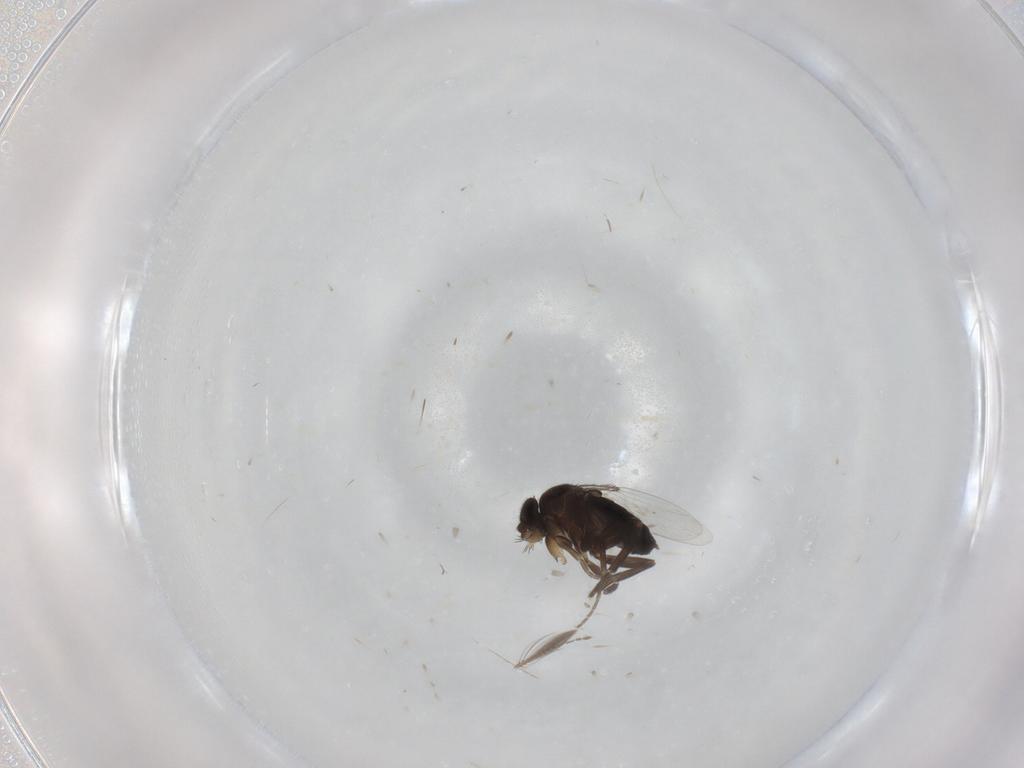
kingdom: Animalia
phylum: Arthropoda
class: Insecta
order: Diptera
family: Phoridae
